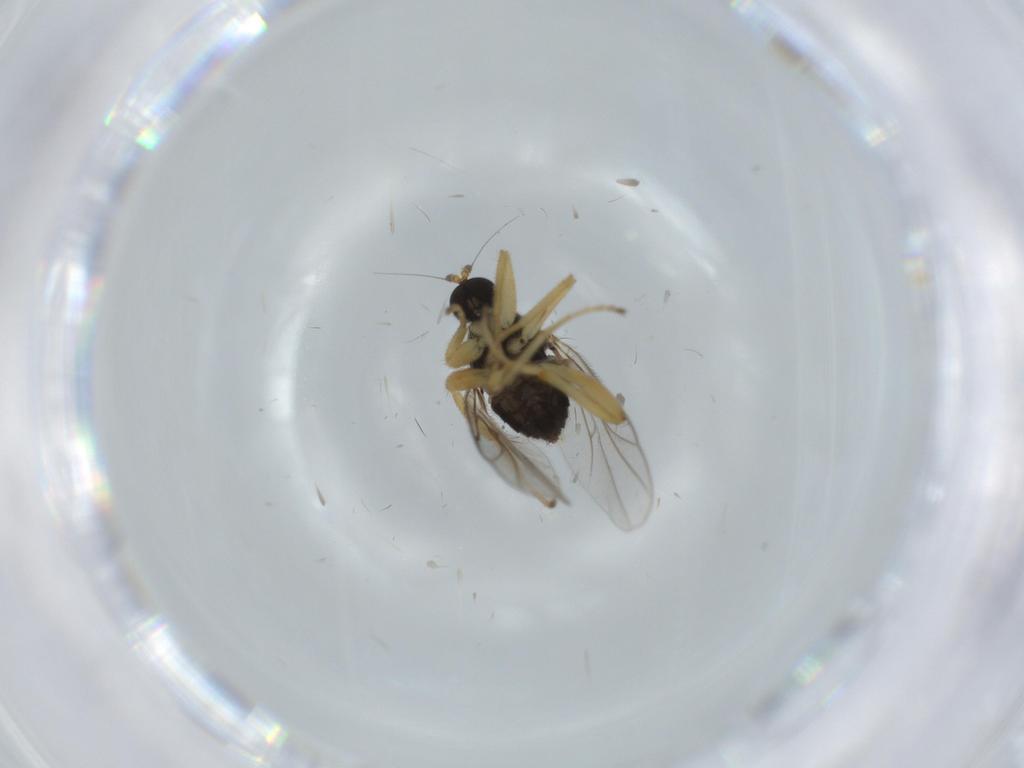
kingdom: Animalia
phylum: Arthropoda
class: Insecta
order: Diptera
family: Hybotidae
